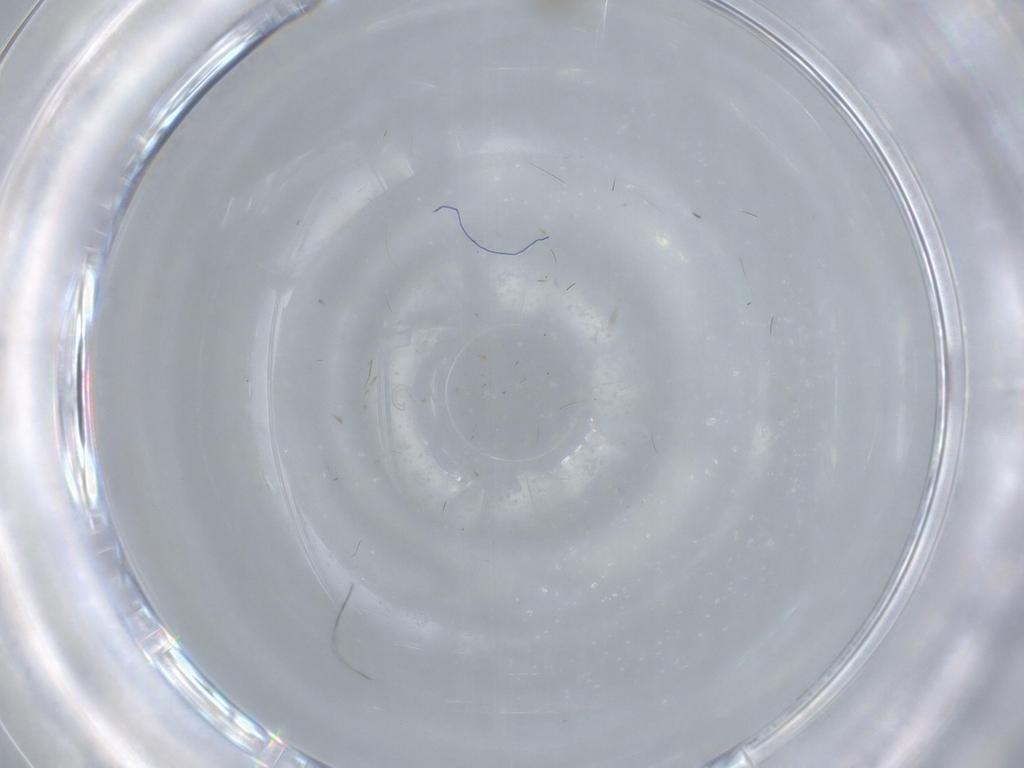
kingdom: Animalia
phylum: Arthropoda
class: Insecta
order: Diptera
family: Chironomidae
